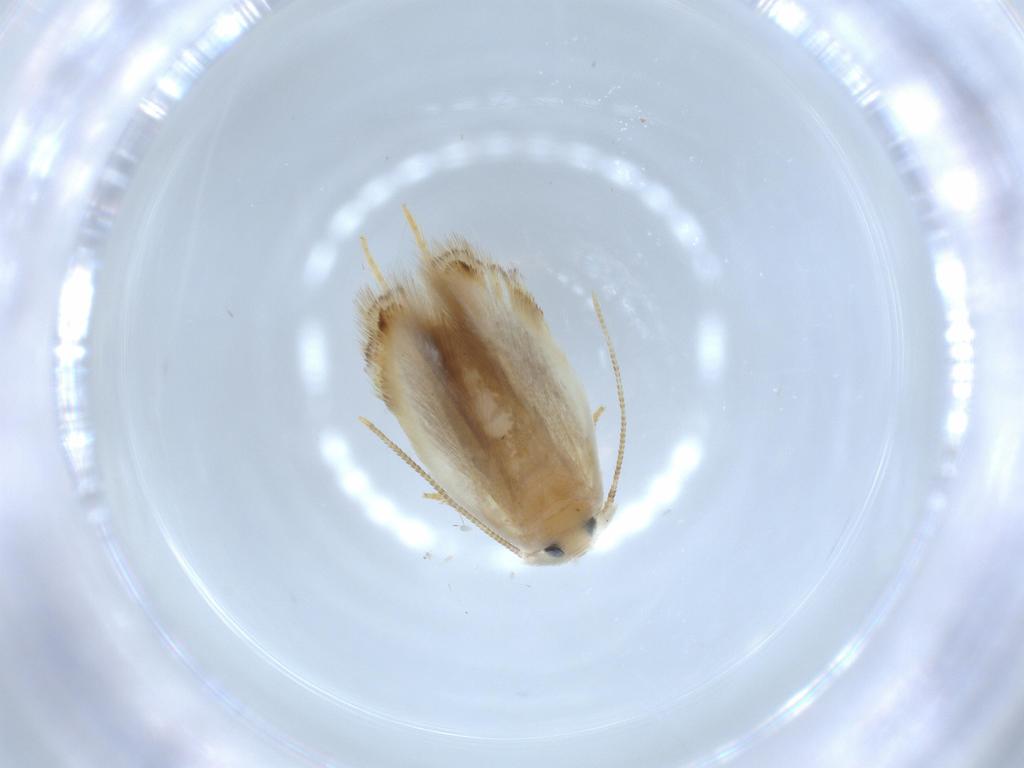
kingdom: Animalia
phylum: Arthropoda
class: Insecta
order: Lepidoptera
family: Opostegidae
